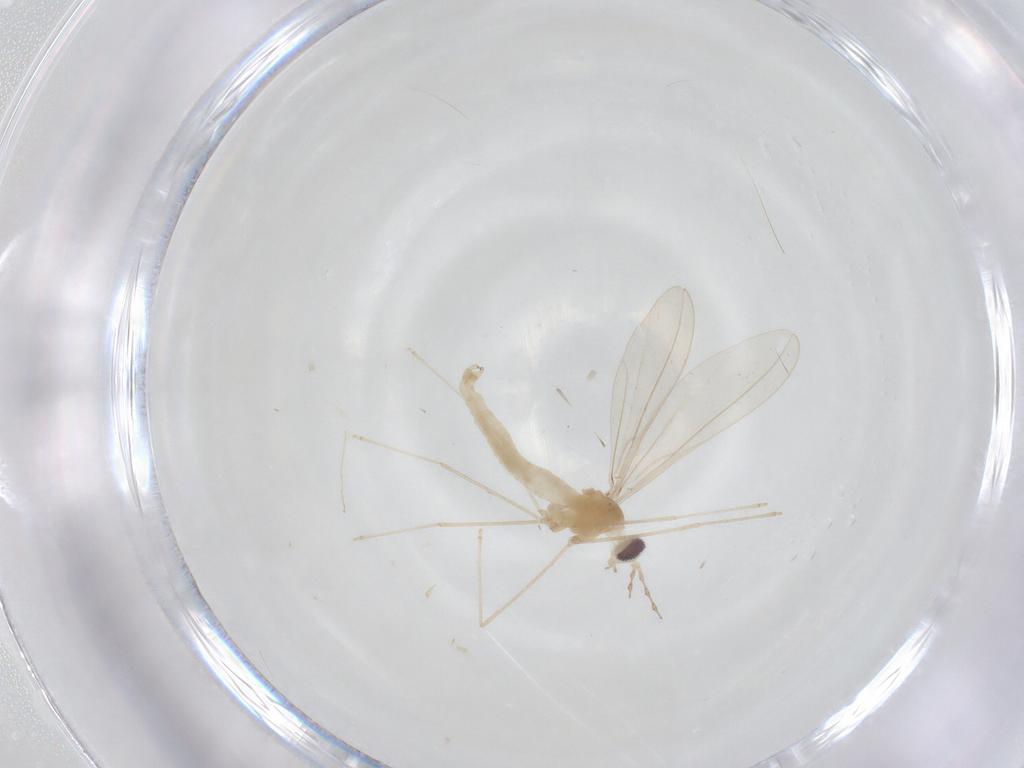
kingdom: Animalia
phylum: Arthropoda
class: Insecta
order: Diptera
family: Cecidomyiidae
